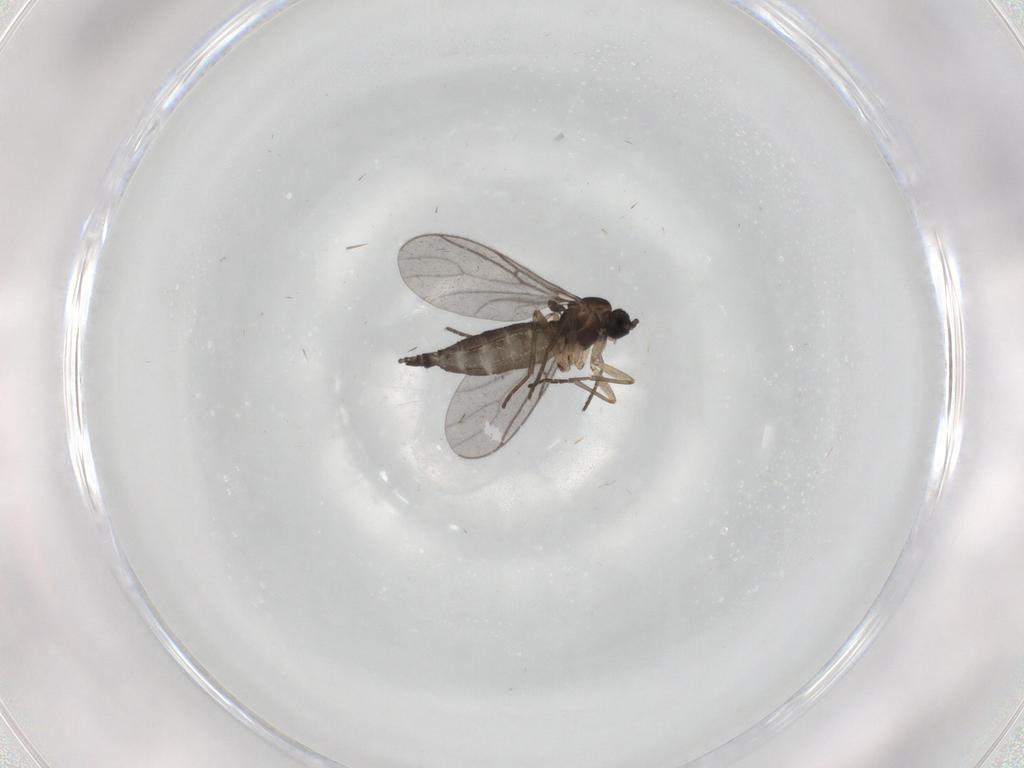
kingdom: Animalia
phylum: Arthropoda
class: Insecta
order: Diptera
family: Sciaridae
